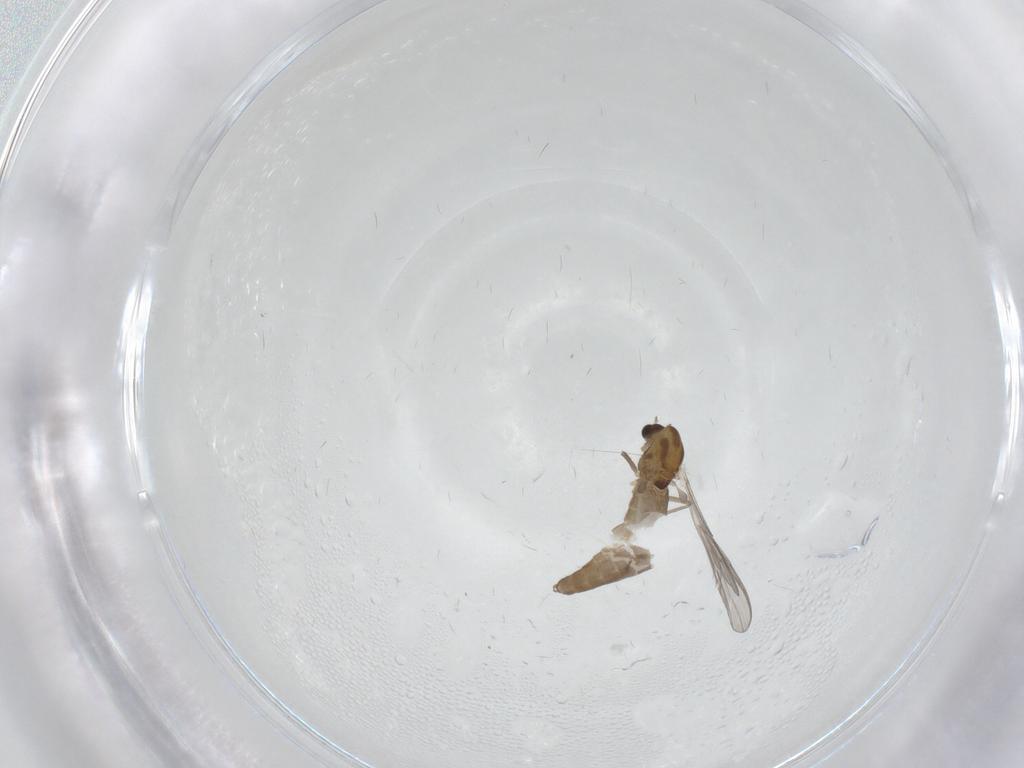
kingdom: Animalia
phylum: Arthropoda
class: Insecta
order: Diptera
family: Chironomidae
